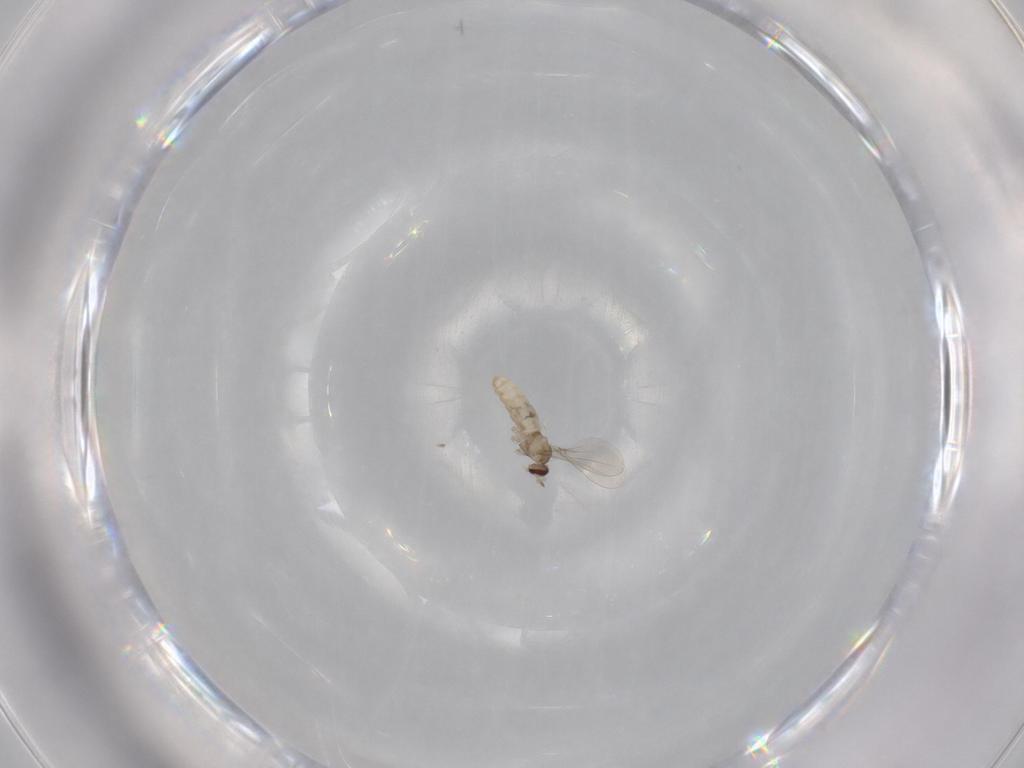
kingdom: Animalia
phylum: Arthropoda
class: Insecta
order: Diptera
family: Cecidomyiidae
